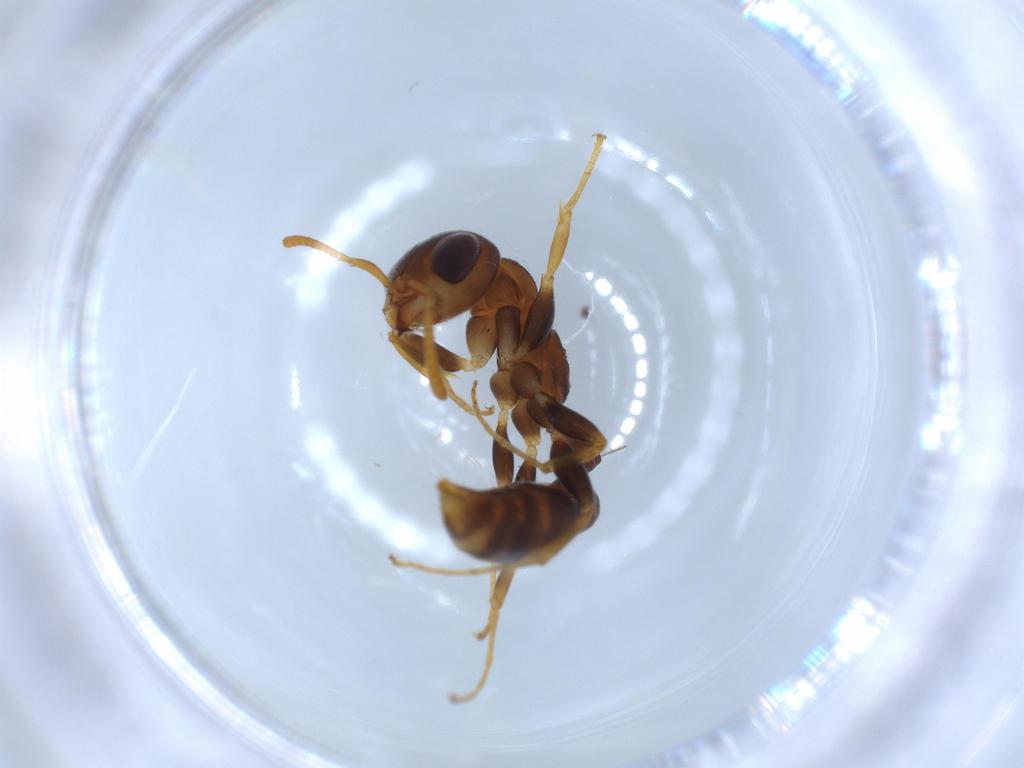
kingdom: Animalia
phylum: Arthropoda
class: Insecta
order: Hymenoptera
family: Formicidae
